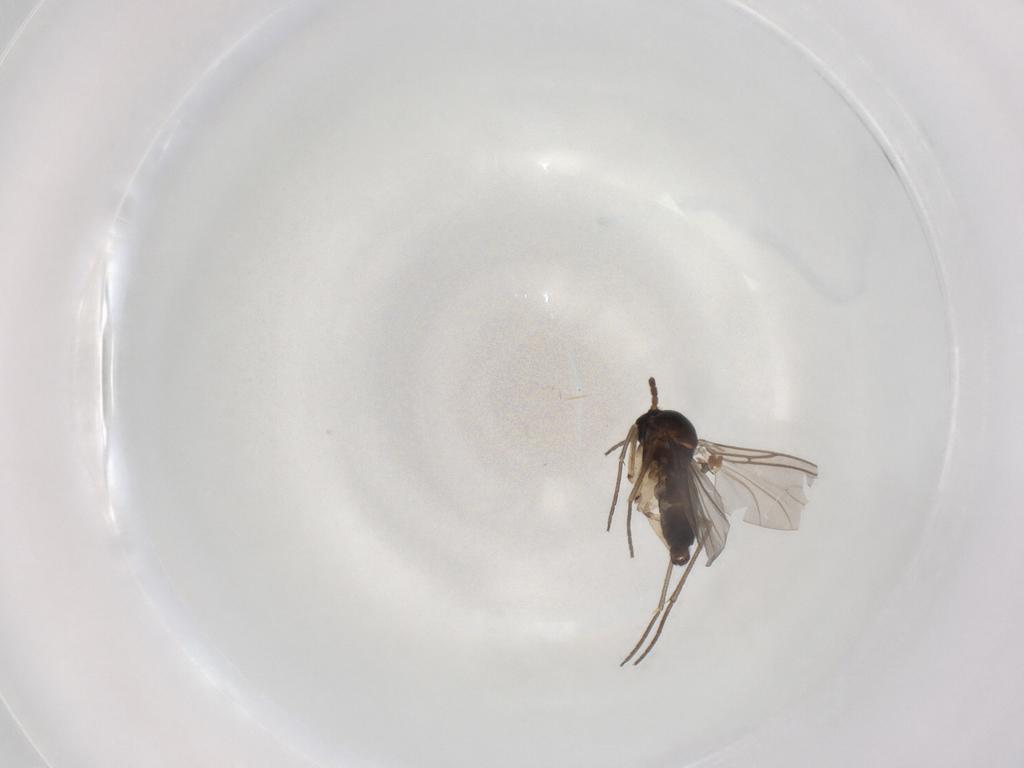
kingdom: Animalia
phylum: Arthropoda
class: Insecta
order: Diptera
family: Sciaridae
